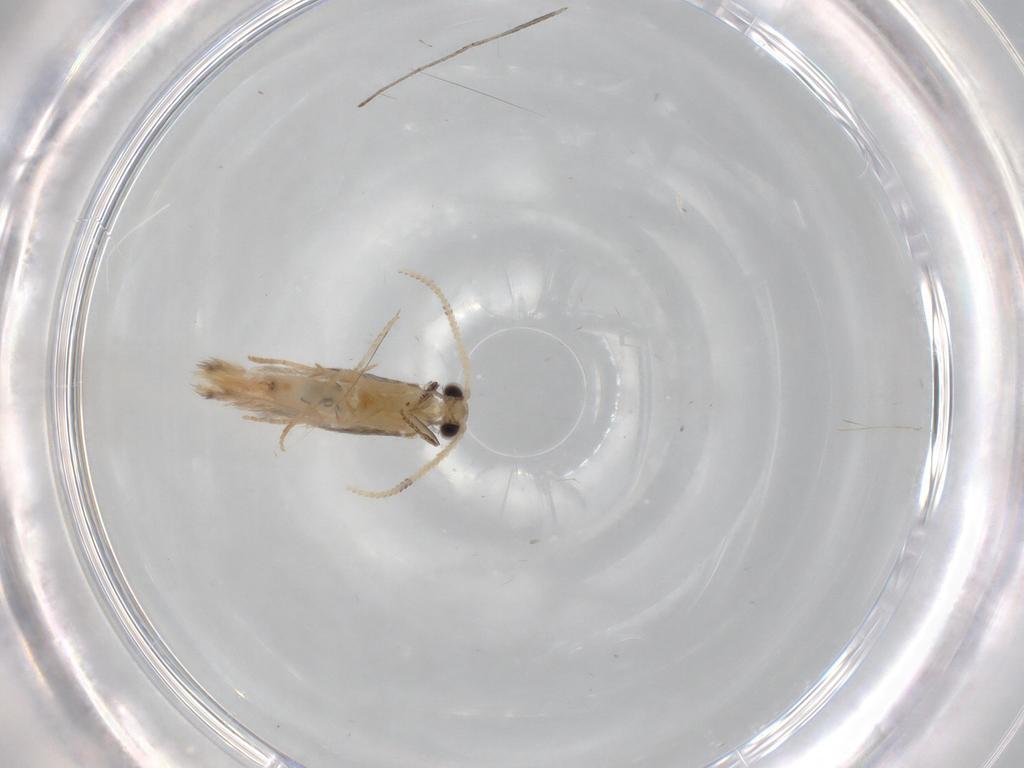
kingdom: Animalia
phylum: Arthropoda
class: Insecta
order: Trichoptera
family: Hydroptilidae
